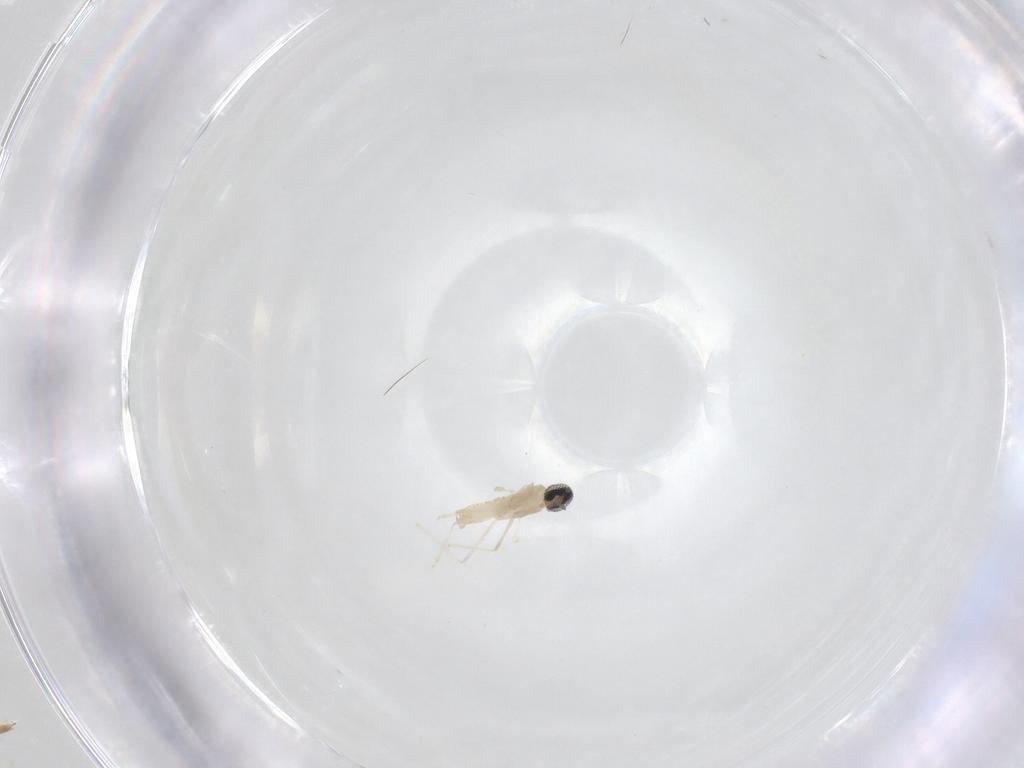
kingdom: Animalia
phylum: Arthropoda
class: Insecta
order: Diptera
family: Cecidomyiidae
